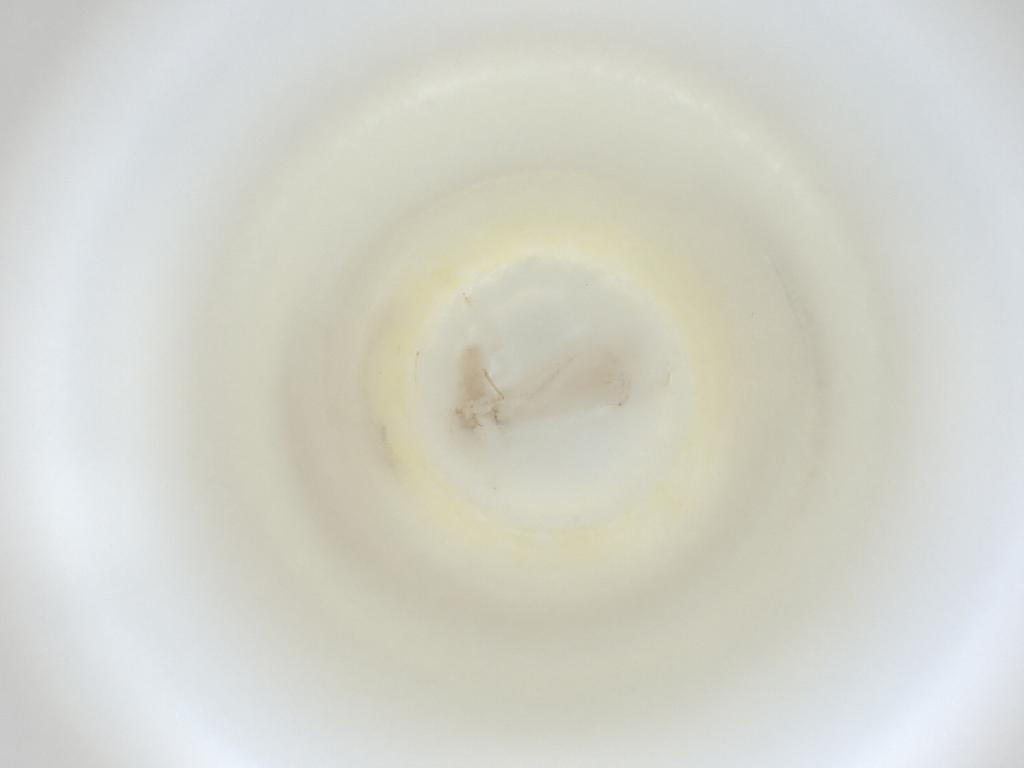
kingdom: Animalia
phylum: Arthropoda
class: Insecta
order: Diptera
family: Cecidomyiidae
